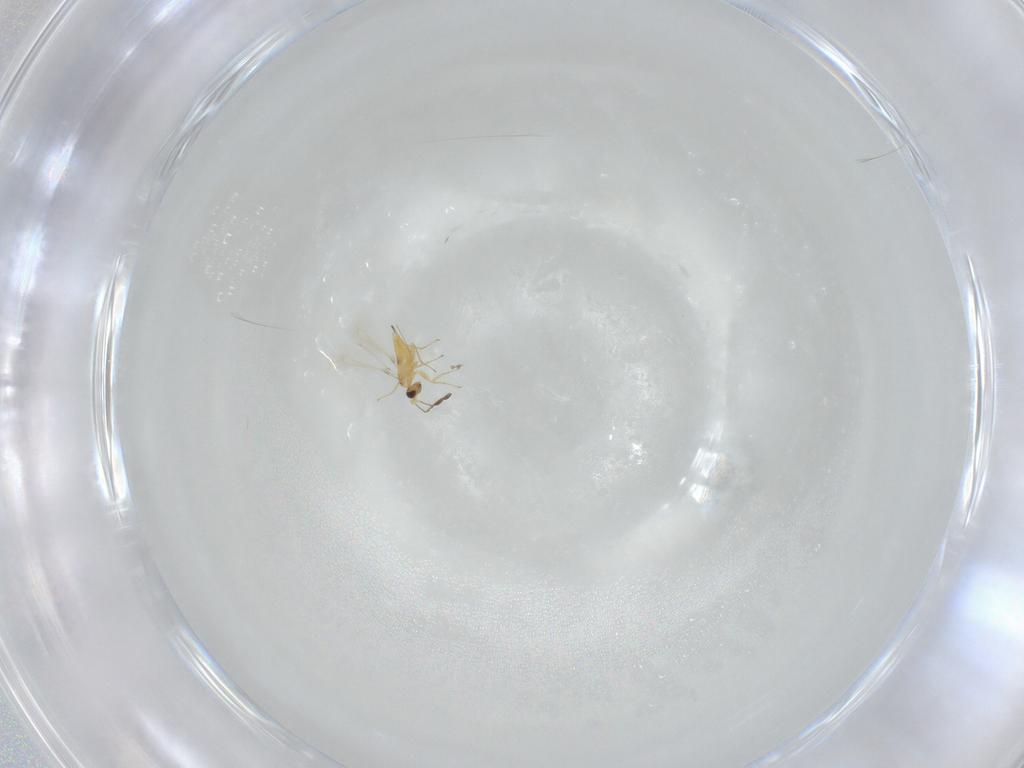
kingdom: Animalia
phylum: Arthropoda
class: Insecta
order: Hymenoptera
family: Mymaridae
